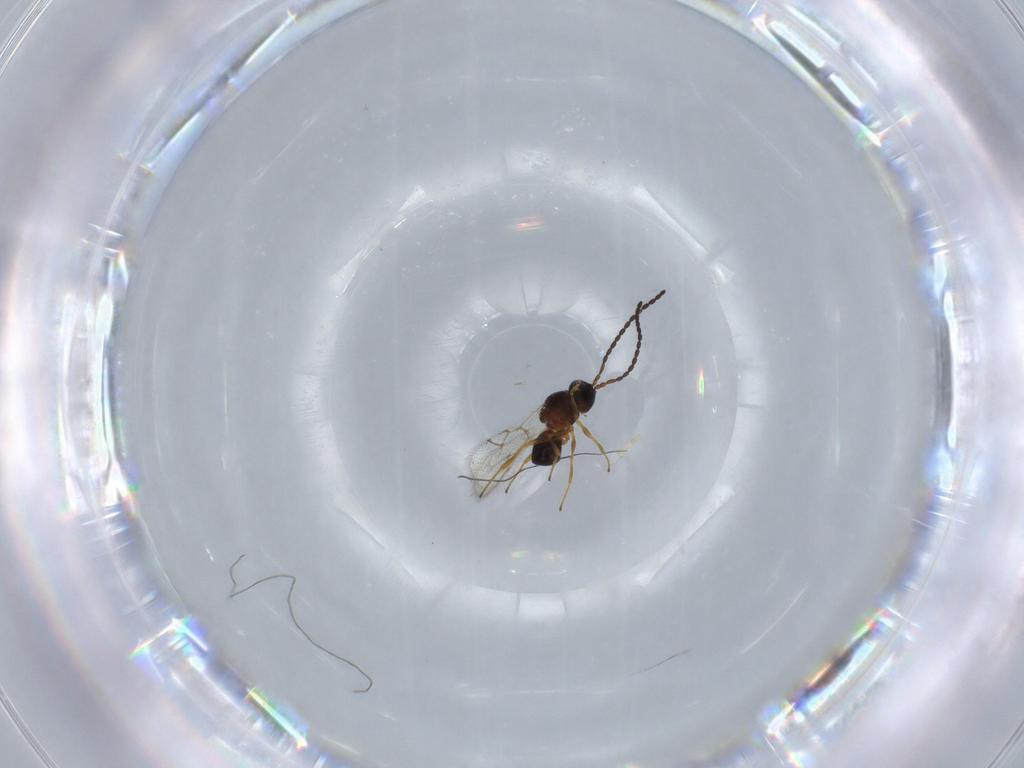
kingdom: Animalia
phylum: Arthropoda
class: Insecta
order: Hymenoptera
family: Figitidae
